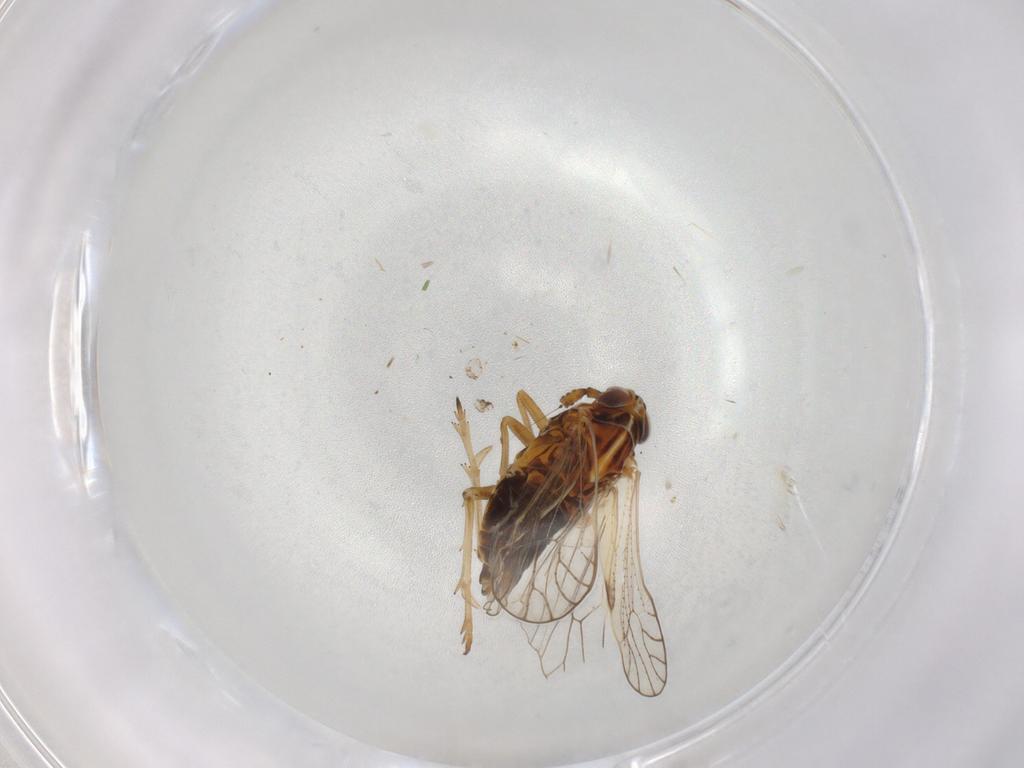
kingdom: Animalia
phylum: Arthropoda
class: Insecta
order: Hemiptera
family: Delphacidae
